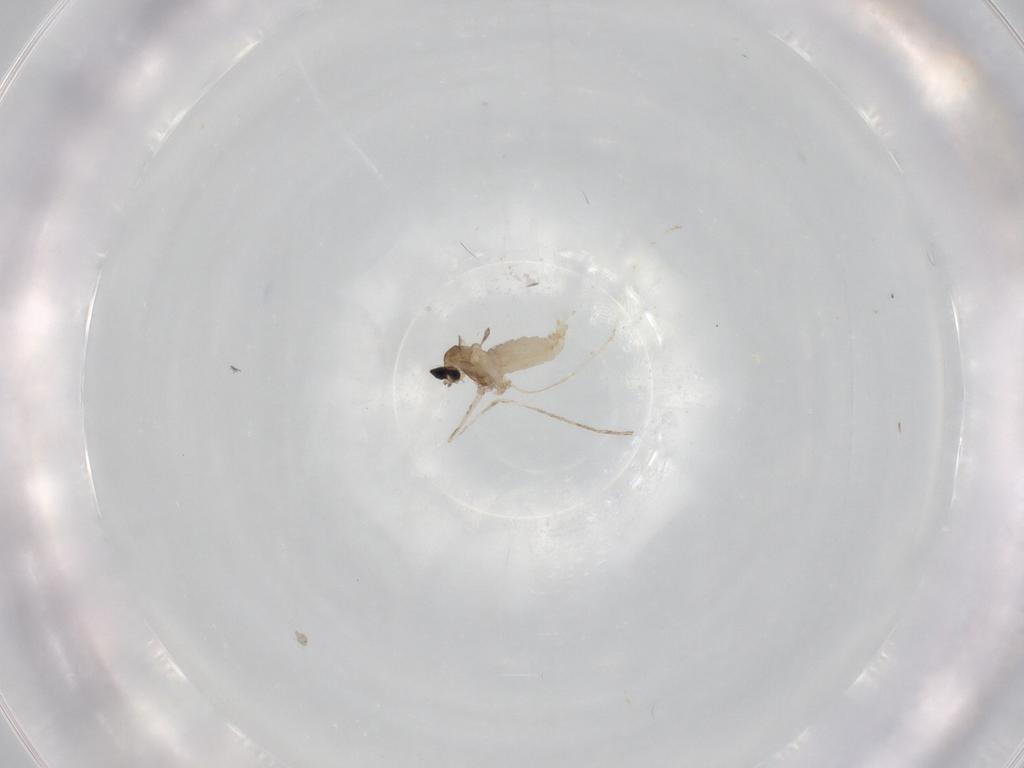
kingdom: Animalia
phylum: Arthropoda
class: Insecta
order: Diptera
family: Cecidomyiidae
